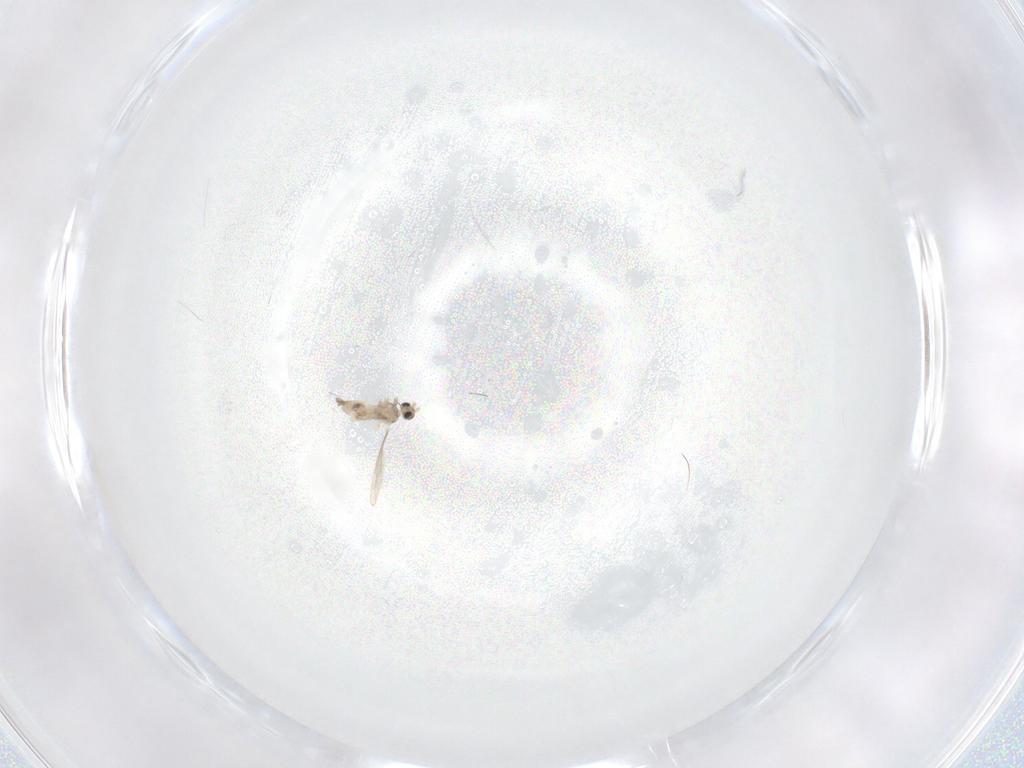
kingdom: Animalia
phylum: Arthropoda
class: Insecta
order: Diptera
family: Cecidomyiidae
